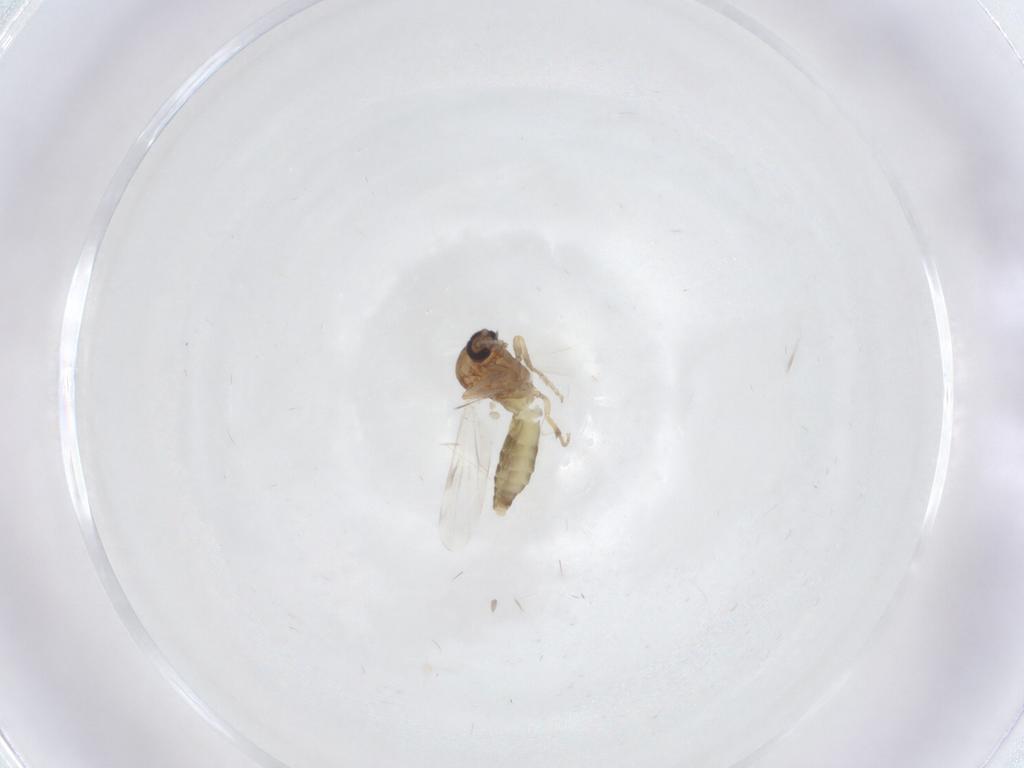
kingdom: Animalia
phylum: Arthropoda
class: Insecta
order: Diptera
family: Ceratopogonidae
